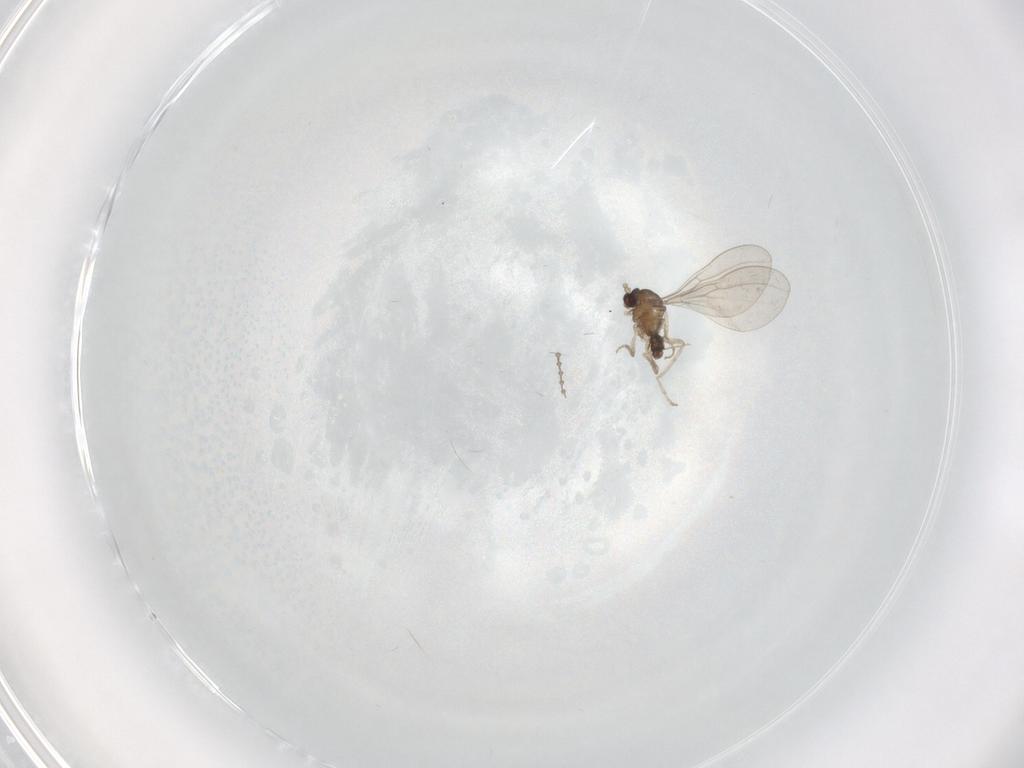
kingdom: Animalia
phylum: Arthropoda
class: Insecta
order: Diptera
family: Cecidomyiidae
